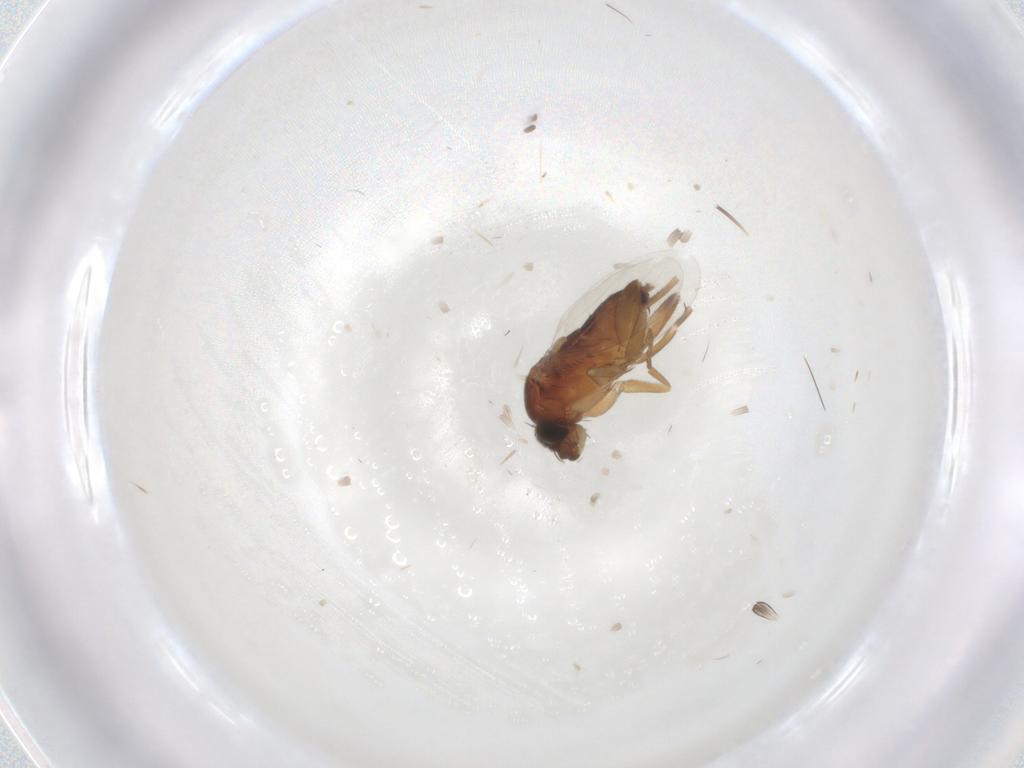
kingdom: Animalia
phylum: Arthropoda
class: Insecta
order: Diptera
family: Phoridae
